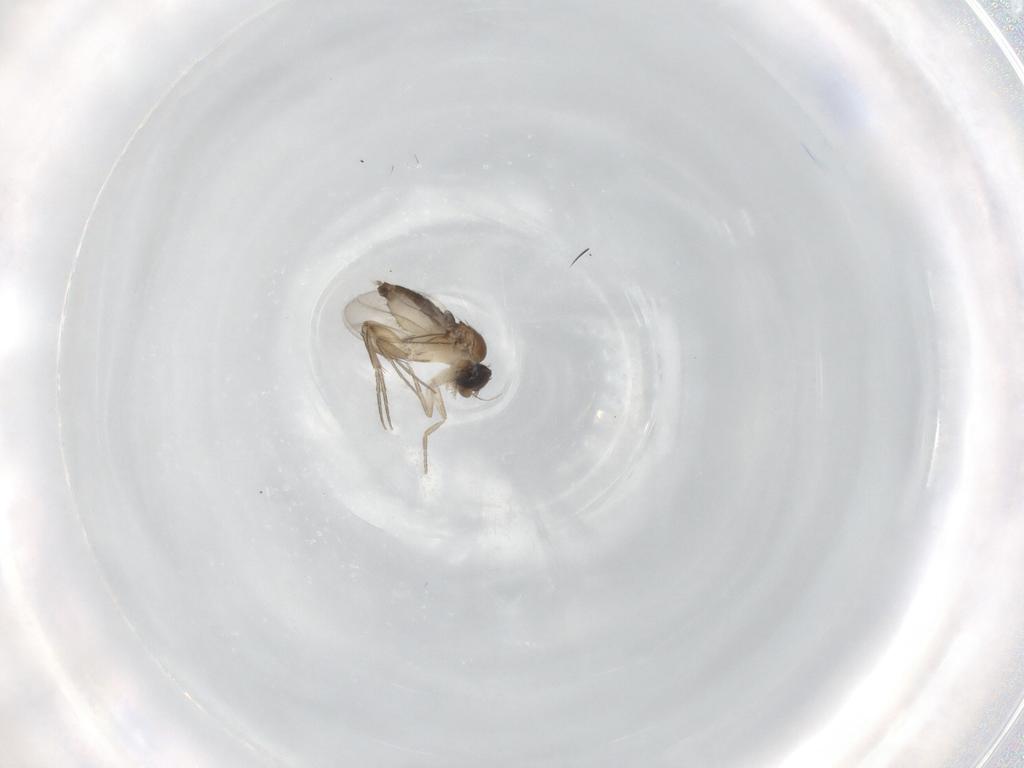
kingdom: Animalia
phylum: Arthropoda
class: Insecta
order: Diptera
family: Phoridae
